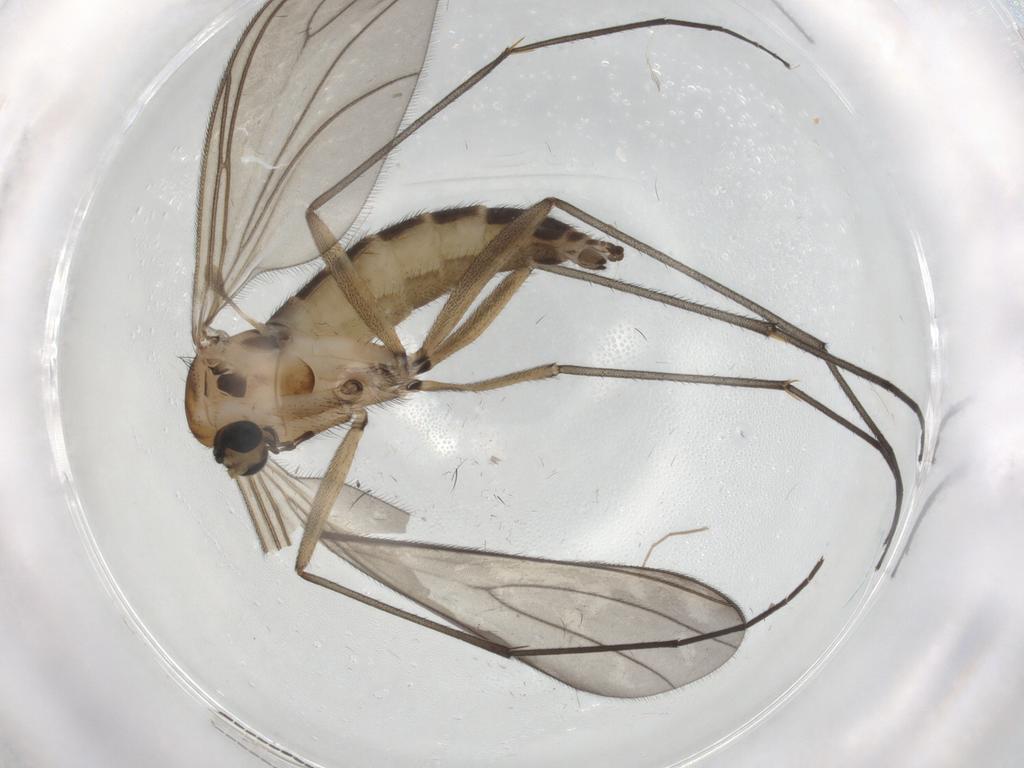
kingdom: Animalia
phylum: Arthropoda
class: Insecta
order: Diptera
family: Sciaridae
